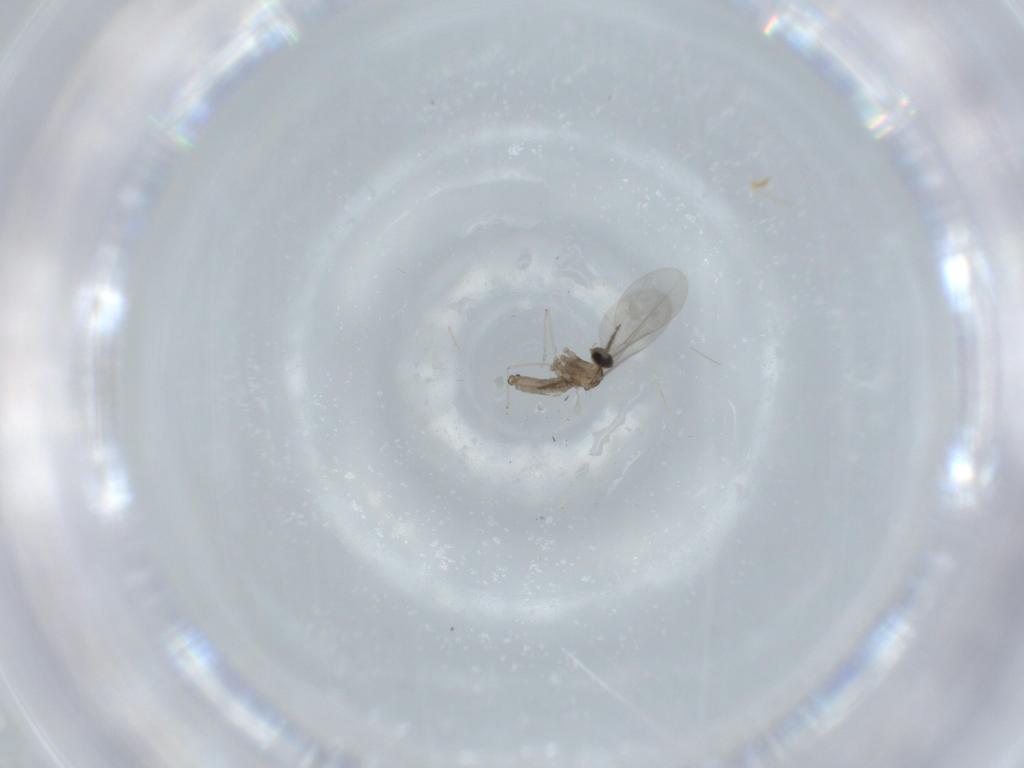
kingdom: Animalia
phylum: Arthropoda
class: Insecta
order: Diptera
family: Cecidomyiidae
